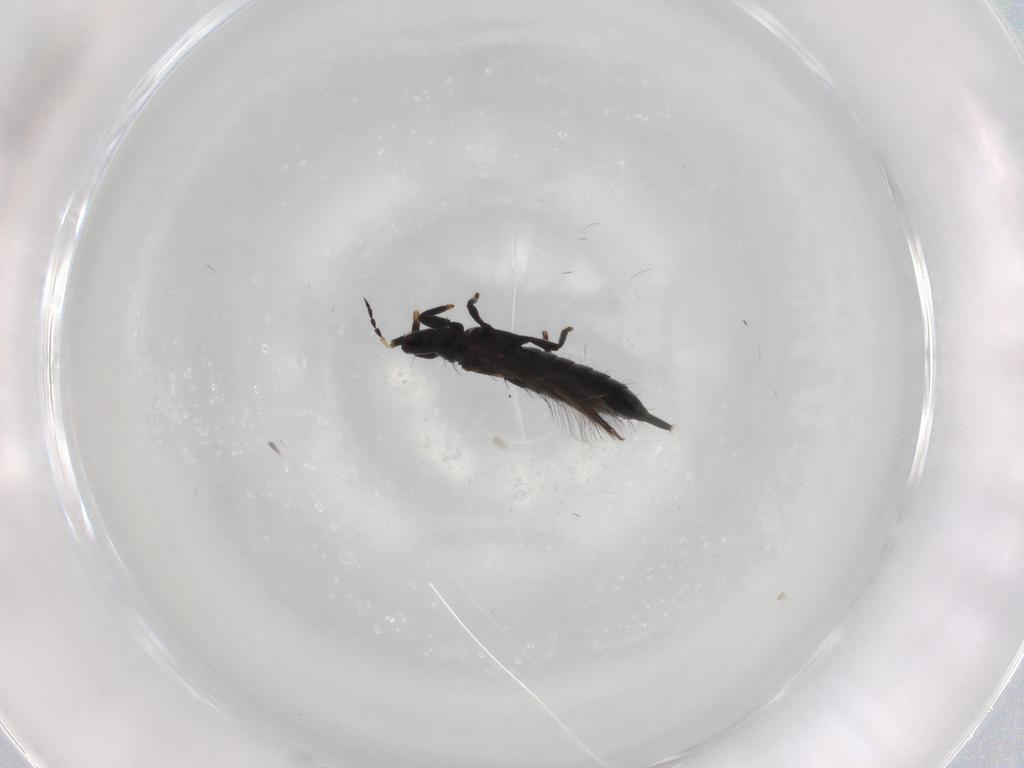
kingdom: Animalia
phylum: Arthropoda
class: Insecta
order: Thysanoptera
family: Phlaeothripidae
